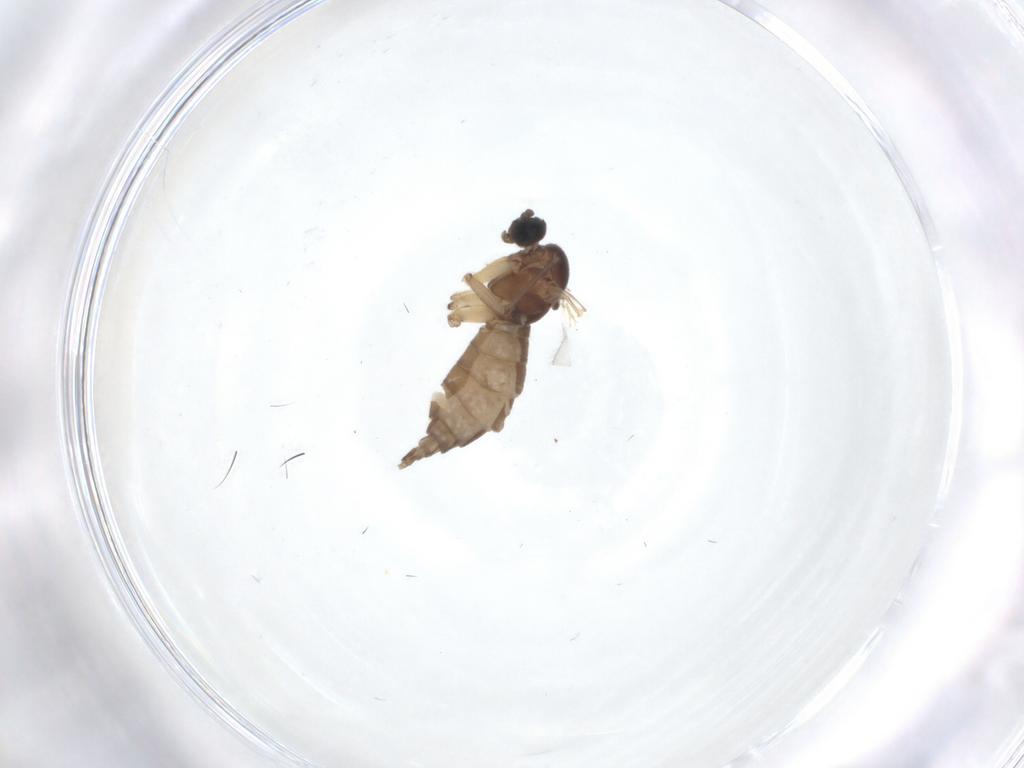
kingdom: Animalia
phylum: Arthropoda
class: Insecta
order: Diptera
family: Sciaridae
